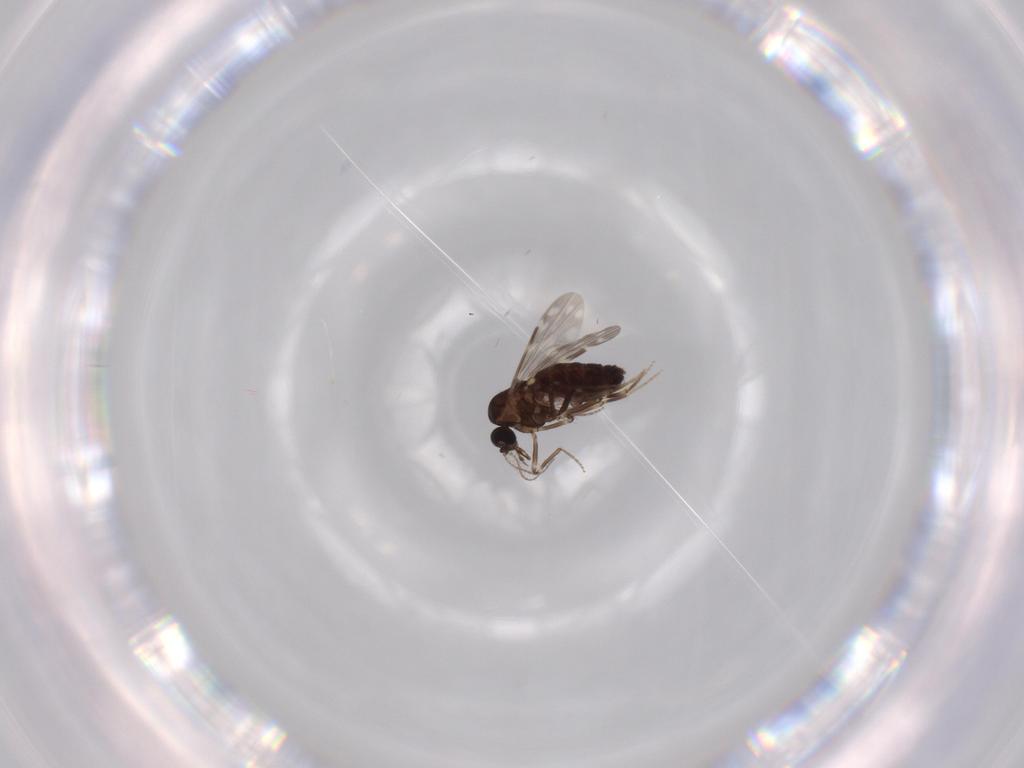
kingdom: Animalia
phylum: Arthropoda
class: Insecta
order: Diptera
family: Ceratopogonidae
